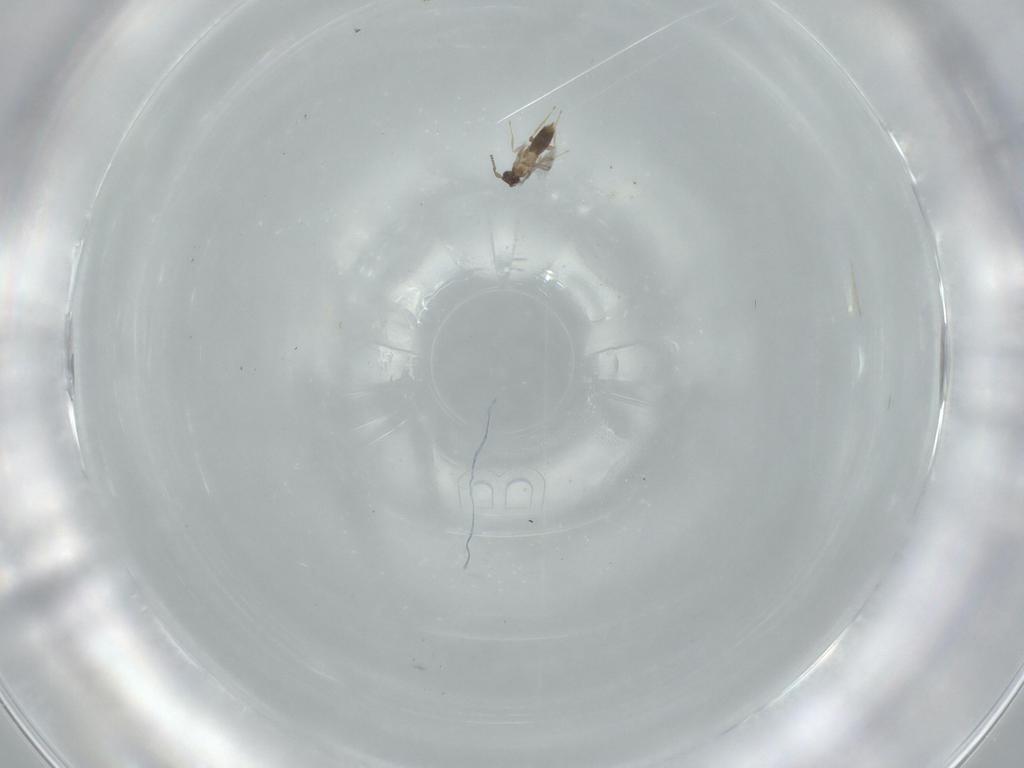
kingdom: Animalia
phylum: Arthropoda
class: Insecta
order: Hymenoptera
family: Diapriidae
